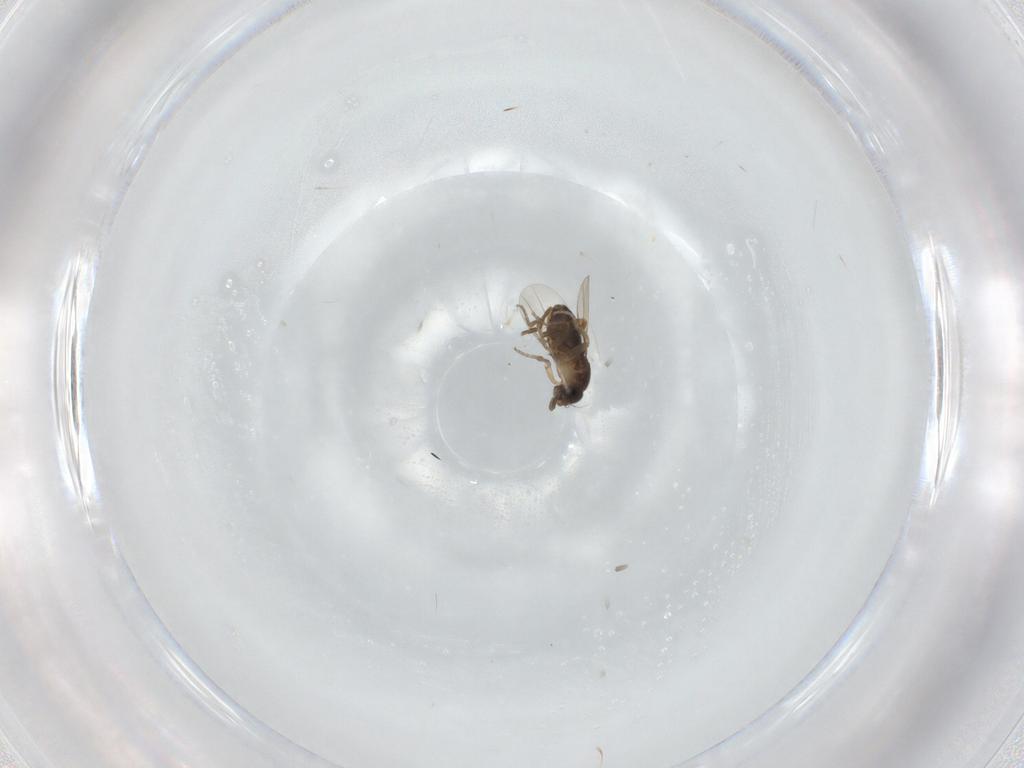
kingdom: Animalia
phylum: Arthropoda
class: Insecta
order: Diptera
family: Phoridae
